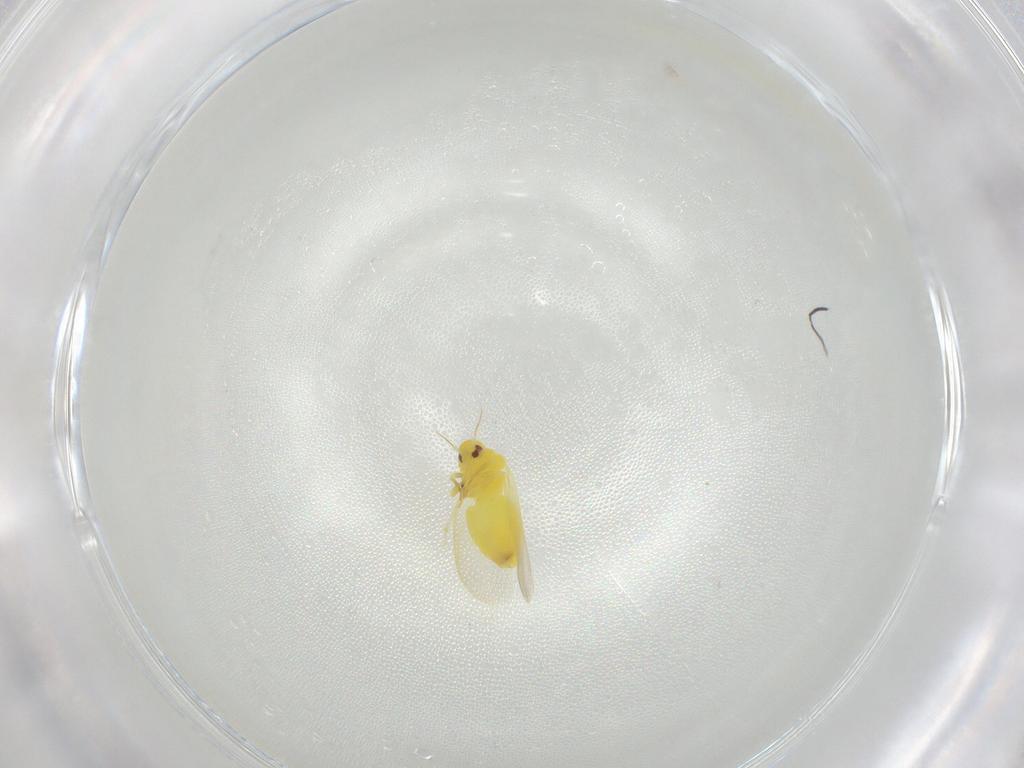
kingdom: Animalia
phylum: Arthropoda
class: Insecta
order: Diptera
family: Cecidomyiidae
